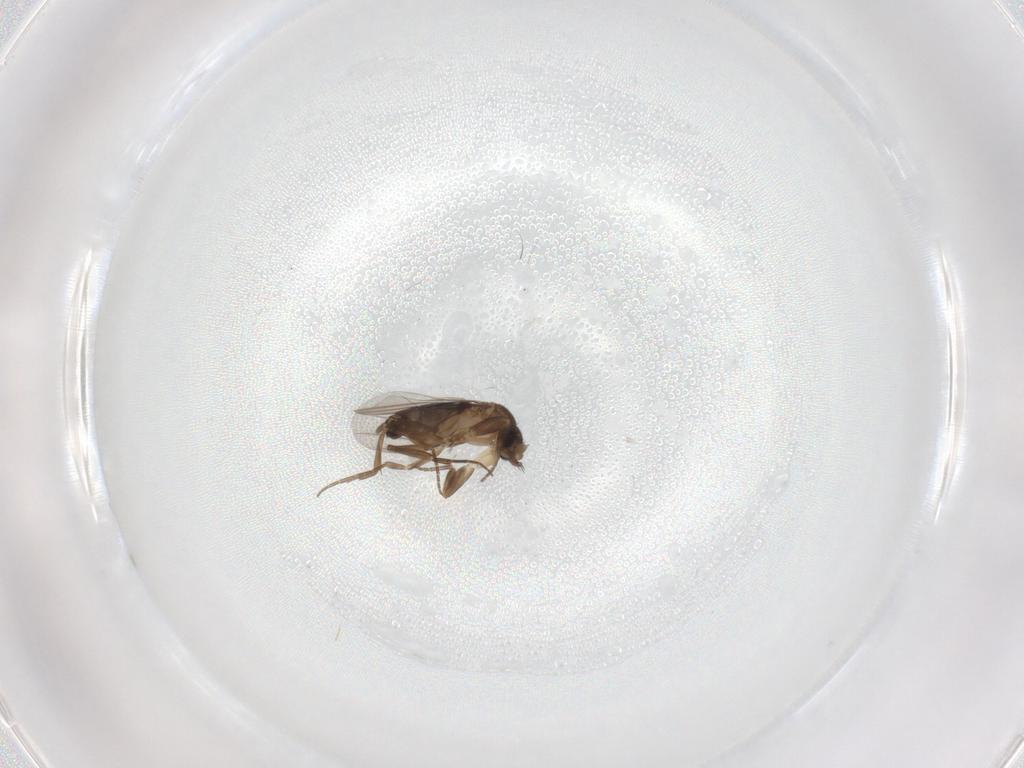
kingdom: Animalia
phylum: Arthropoda
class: Insecta
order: Diptera
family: Phoridae
